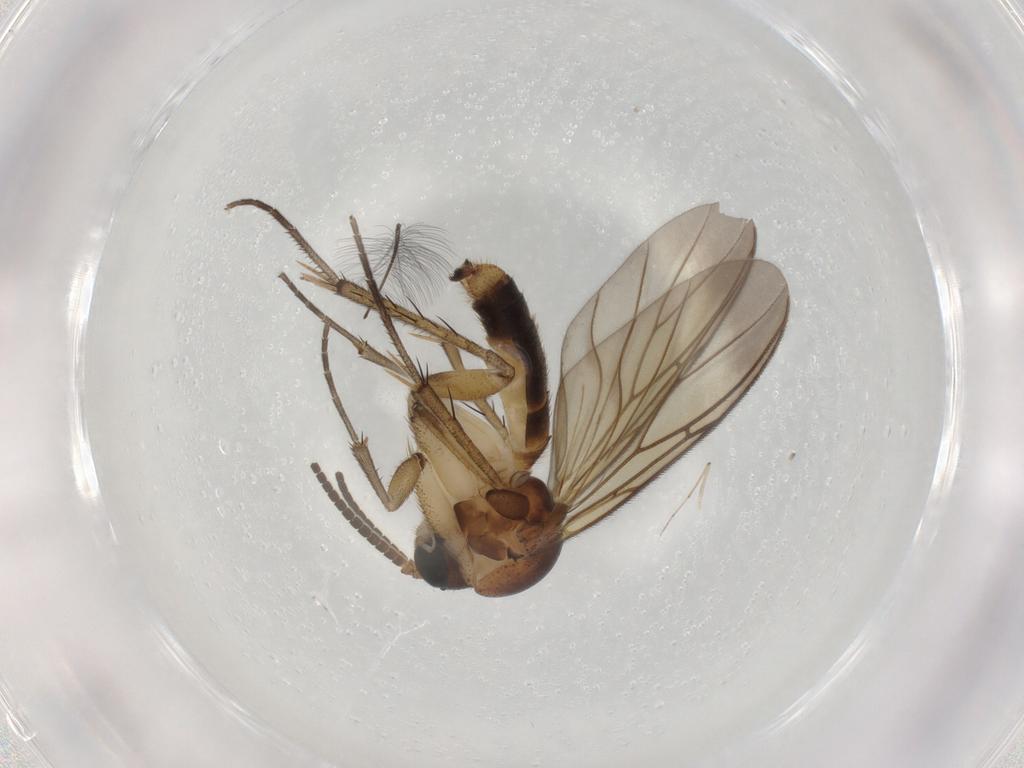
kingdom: Animalia
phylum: Arthropoda
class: Insecta
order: Diptera
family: Mycetophilidae
